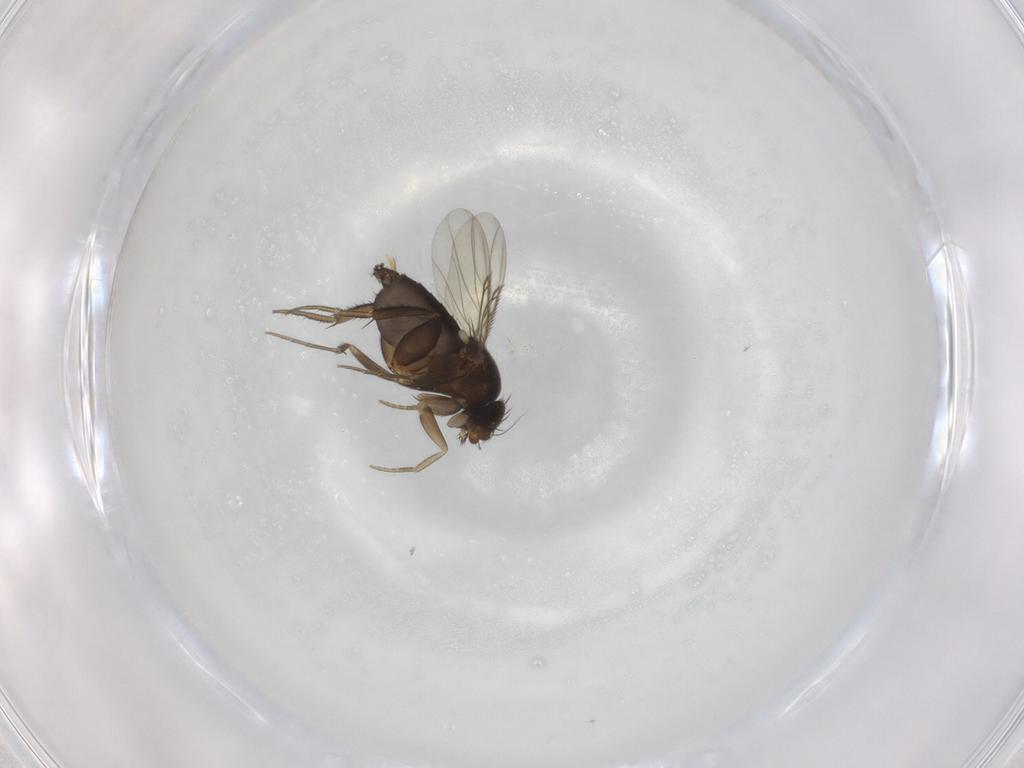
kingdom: Animalia
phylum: Arthropoda
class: Insecta
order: Diptera
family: Phoridae
